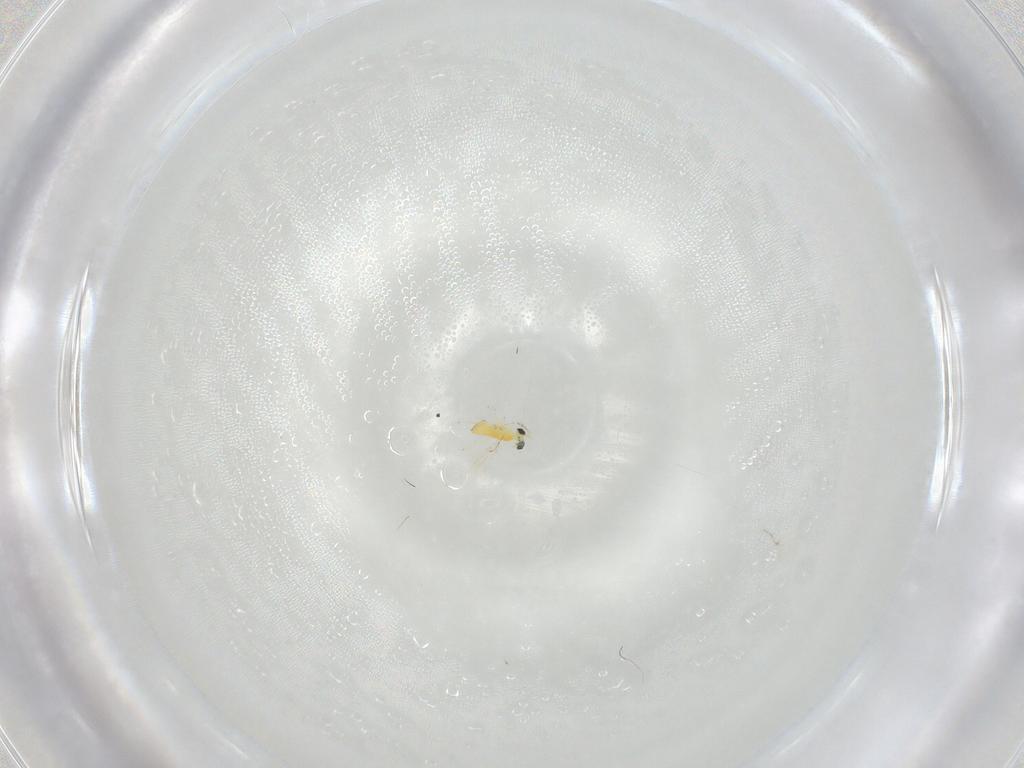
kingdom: Animalia
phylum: Arthropoda
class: Insecta
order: Hymenoptera
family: Trichogrammatidae
